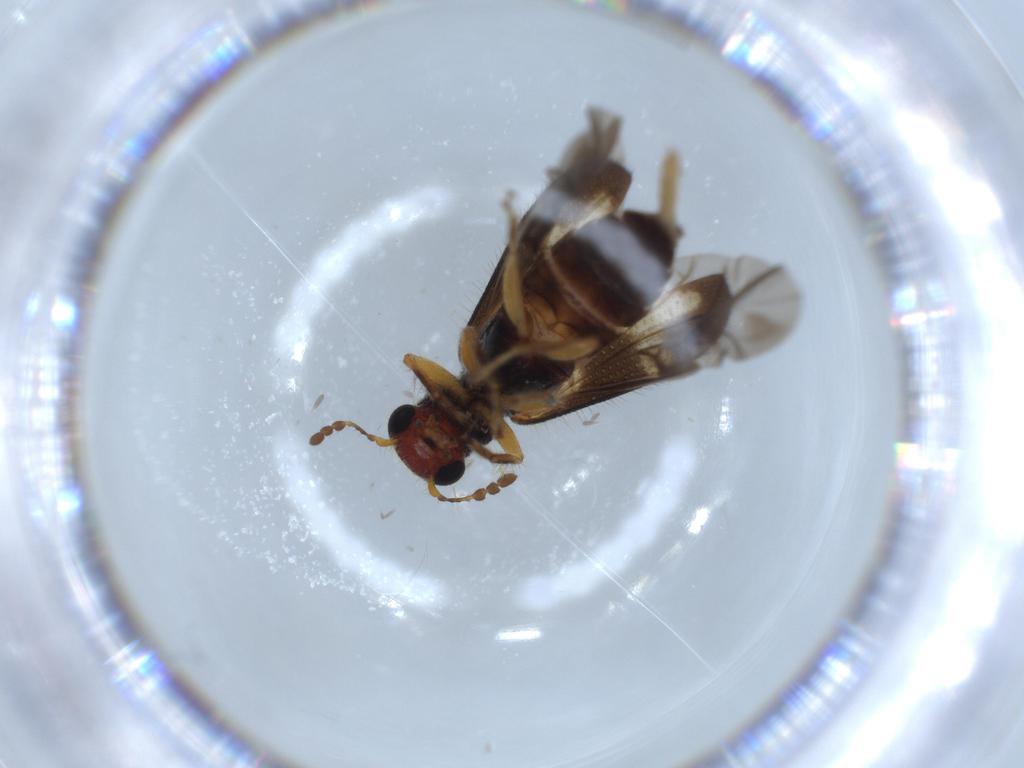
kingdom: Animalia
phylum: Arthropoda
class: Insecta
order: Coleoptera
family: Cleridae
